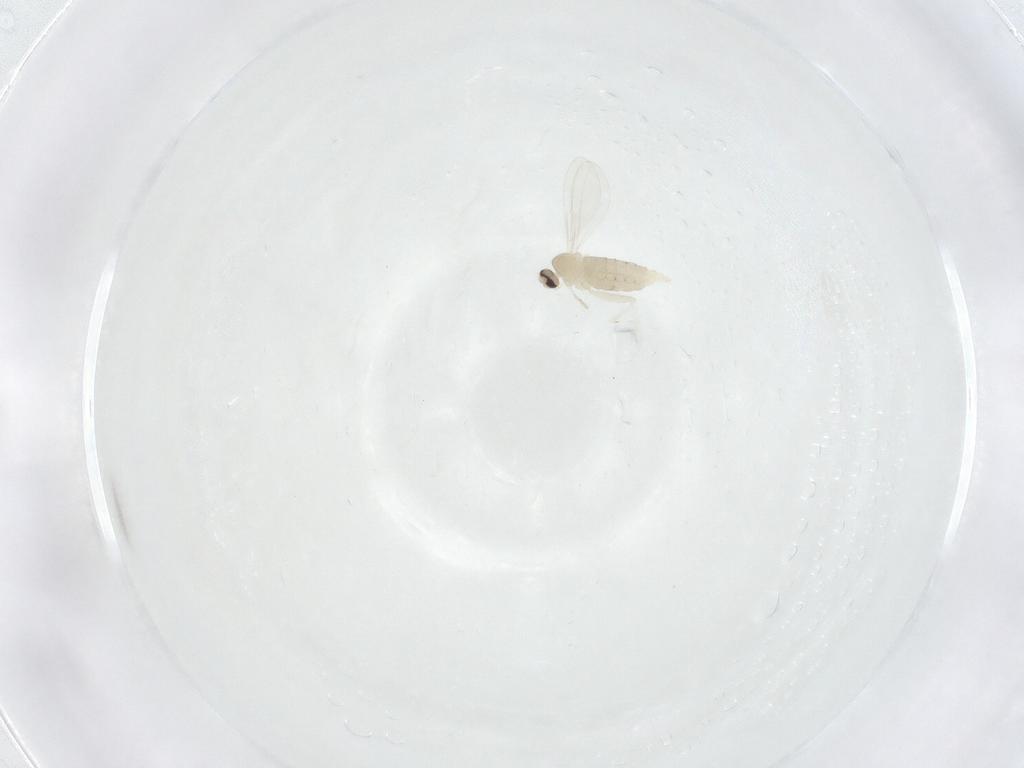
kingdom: Animalia
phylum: Arthropoda
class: Insecta
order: Diptera
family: Cecidomyiidae
